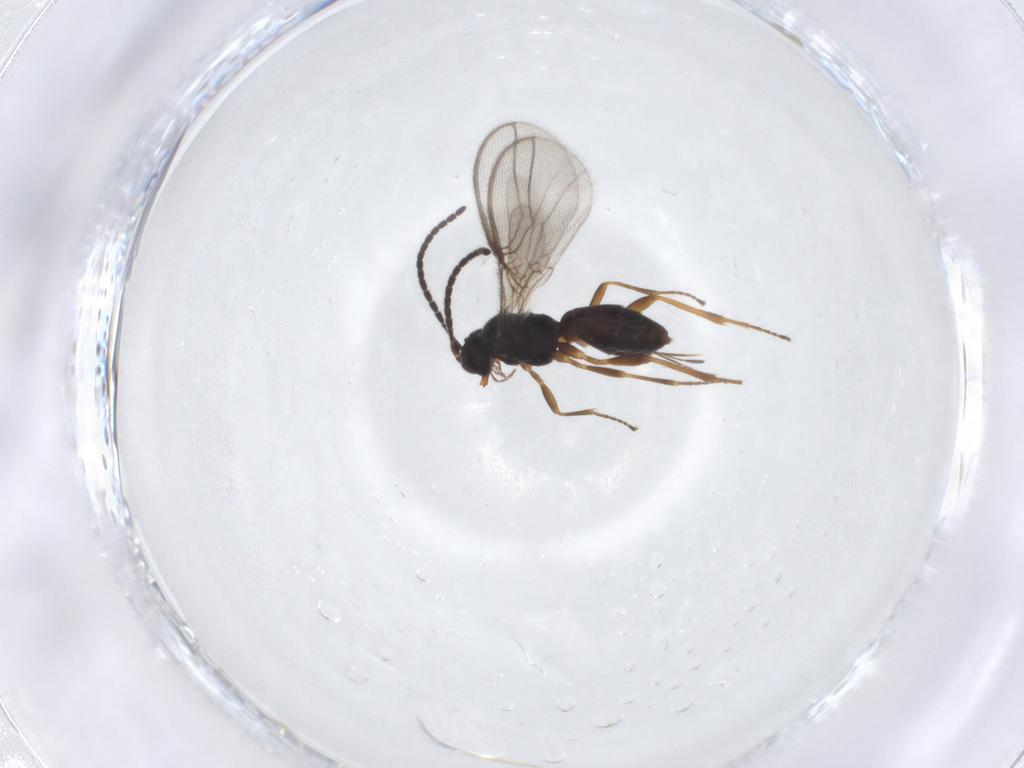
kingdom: Animalia
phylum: Arthropoda
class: Insecta
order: Hymenoptera
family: Braconidae
